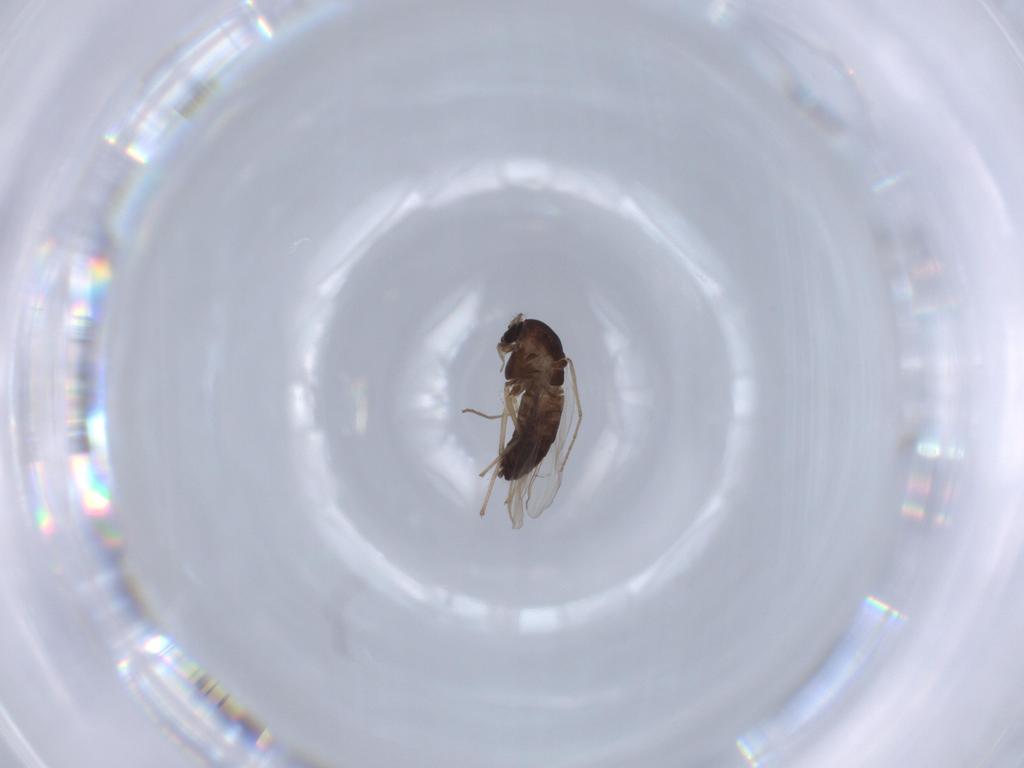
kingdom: Animalia
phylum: Arthropoda
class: Insecta
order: Diptera
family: Chironomidae
